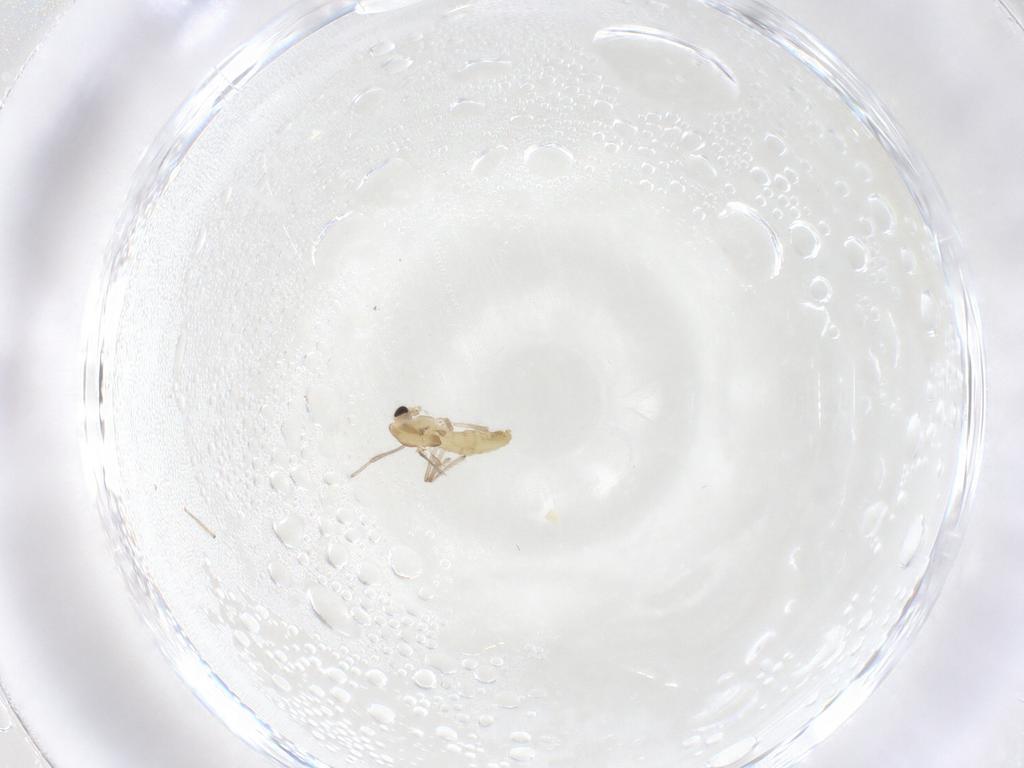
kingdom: Animalia
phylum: Arthropoda
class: Insecta
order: Diptera
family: Chironomidae
